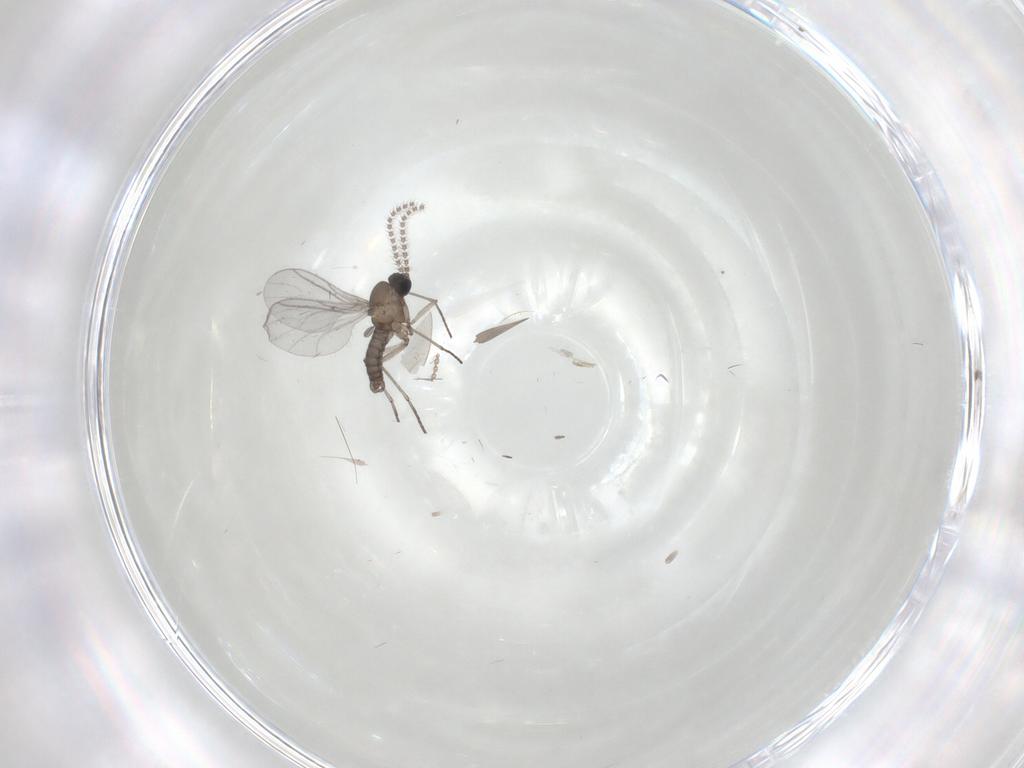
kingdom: Animalia
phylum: Arthropoda
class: Insecta
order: Diptera
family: Sciaridae
